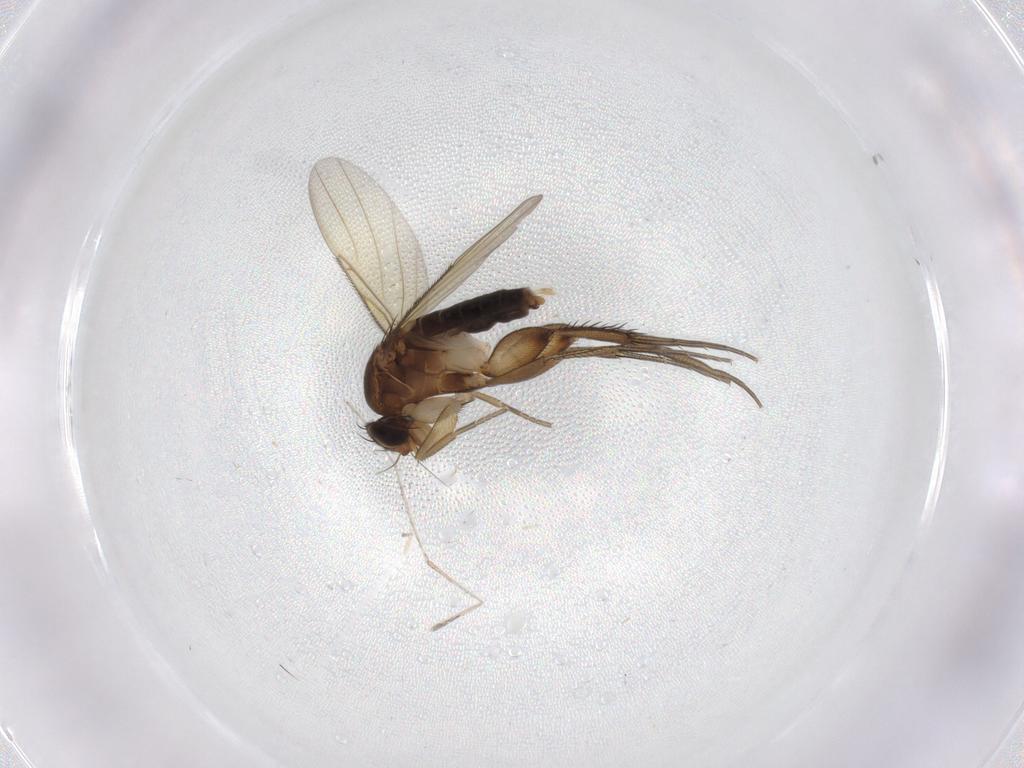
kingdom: Animalia
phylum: Arthropoda
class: Insecta
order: Diptera
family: Phoridae
